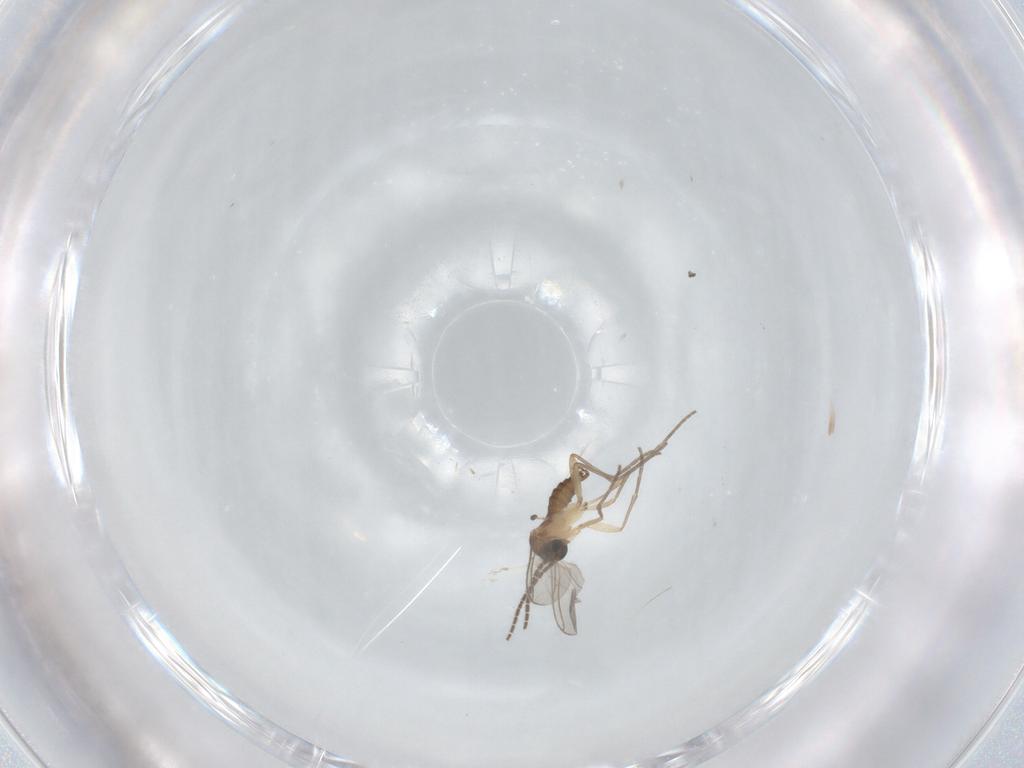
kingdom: Animalia
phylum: Arthropoda
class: Insecta
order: Diptera
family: Sciaridae
